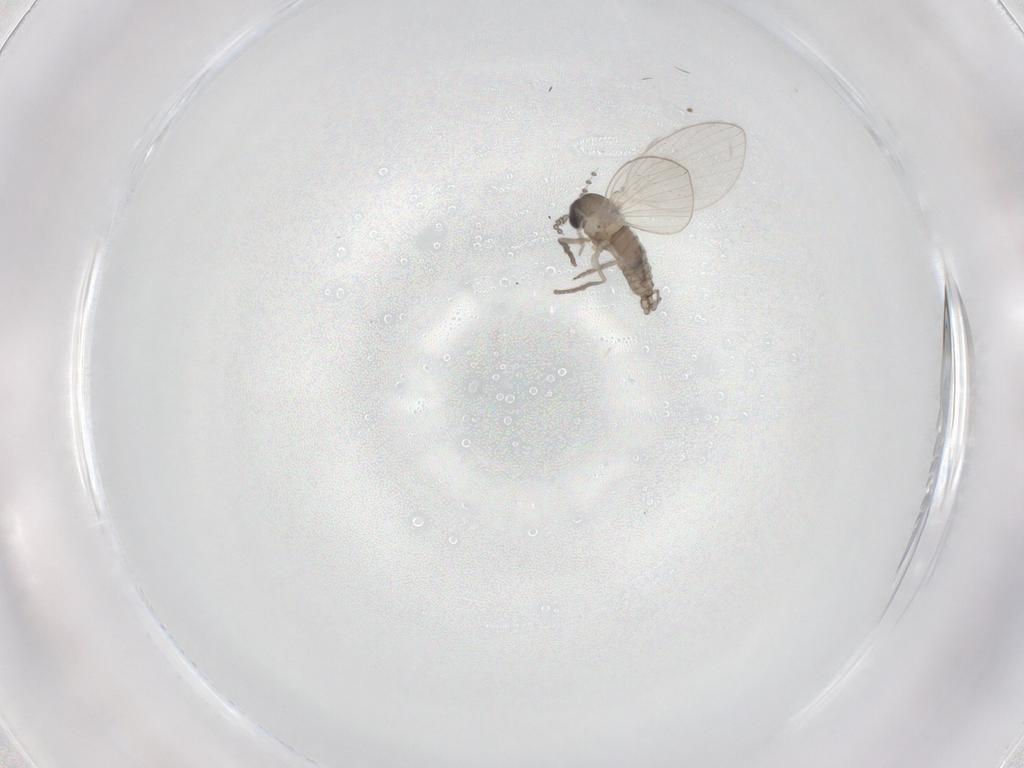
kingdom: Animalia
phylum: Arthropoda
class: Insecta
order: Diptera
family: Psychodidae
